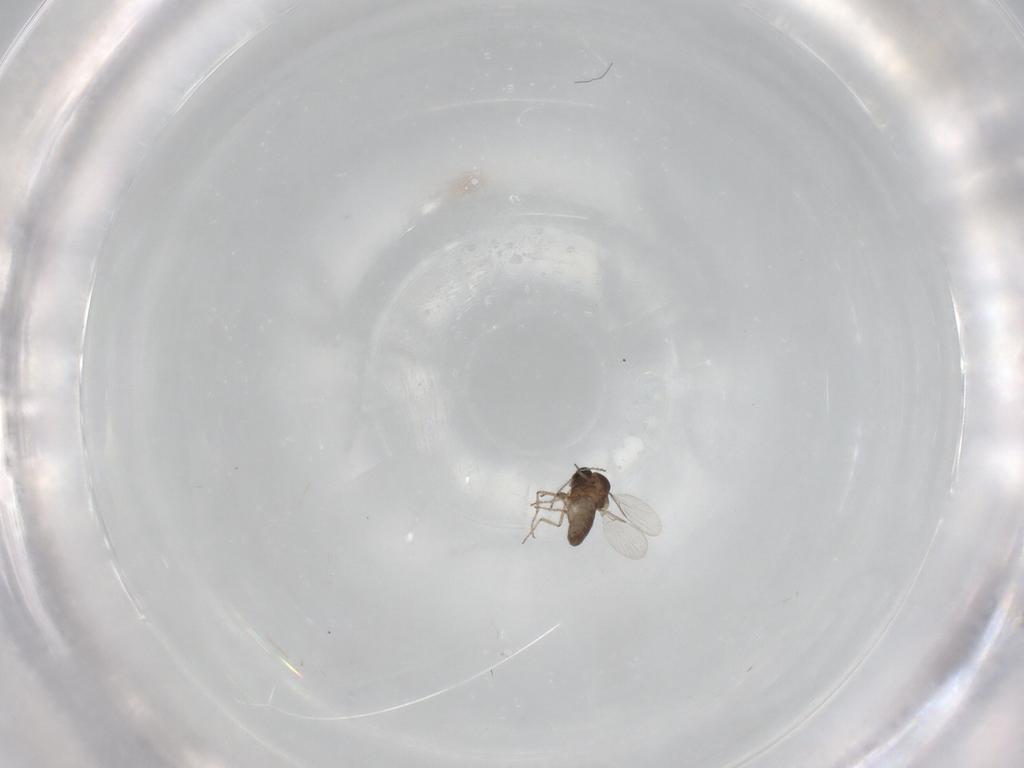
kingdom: Animalia
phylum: Arthropoda
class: Insecta
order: Diptera
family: Ceratopogonidae
